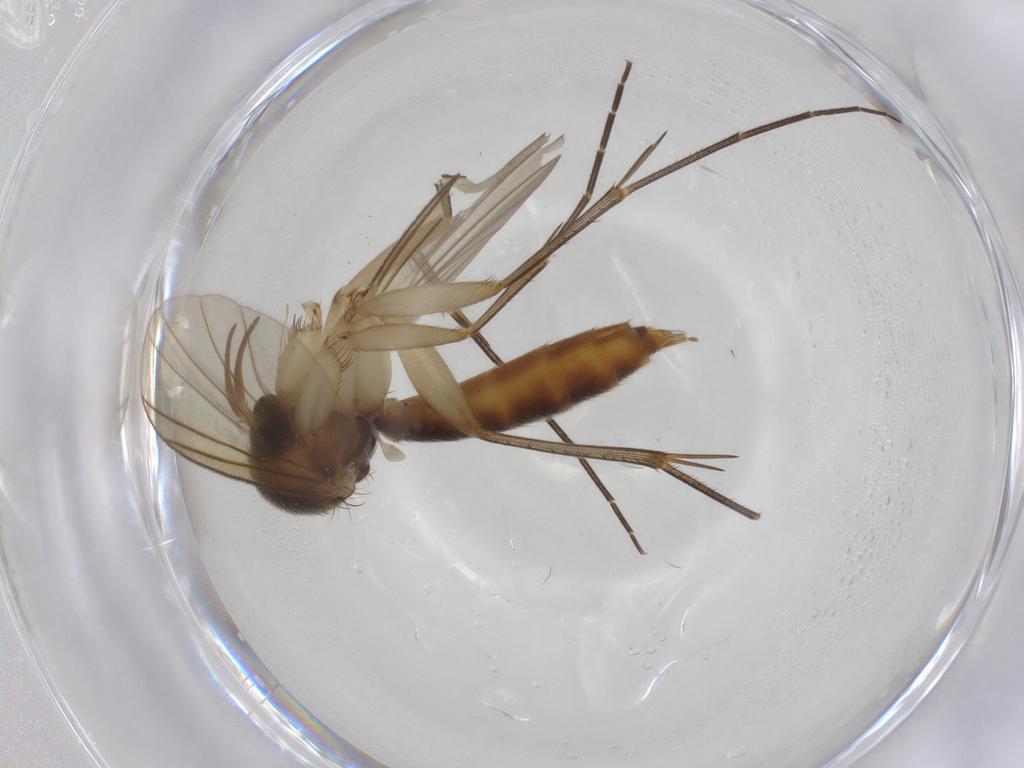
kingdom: Animalia
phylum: Arthropoda
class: Insecta
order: Diptera
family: Mycetophilidae
